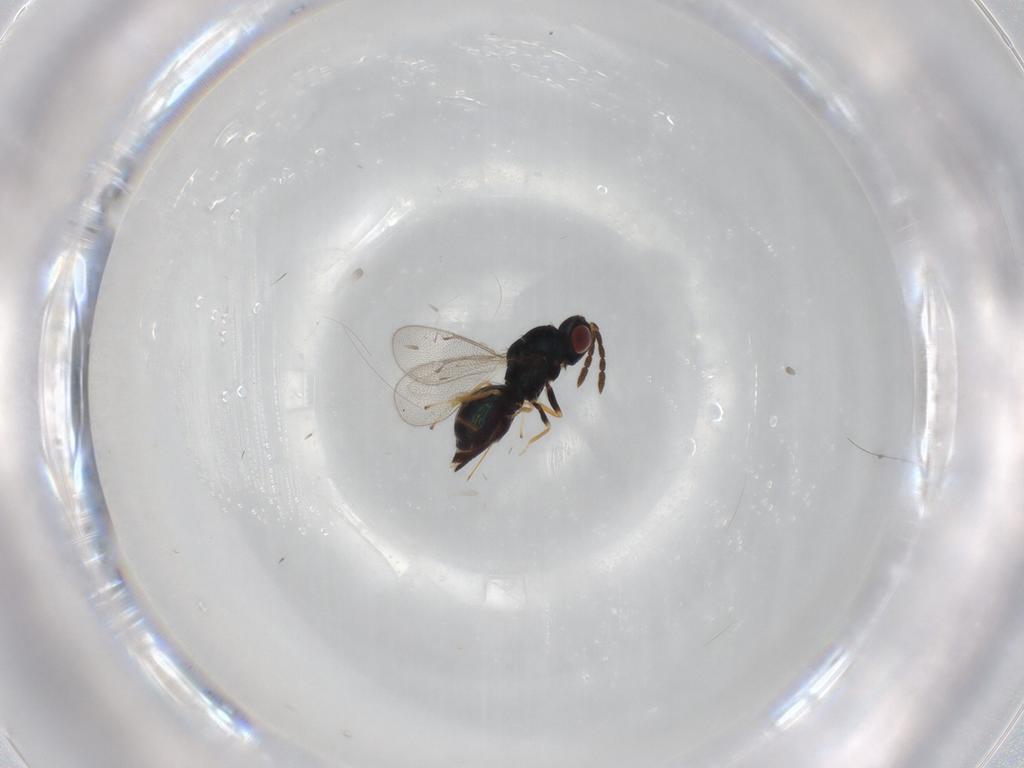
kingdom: Animalia
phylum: Arthropoda
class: Insecta
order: Hymenoptera
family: Eulophidae
